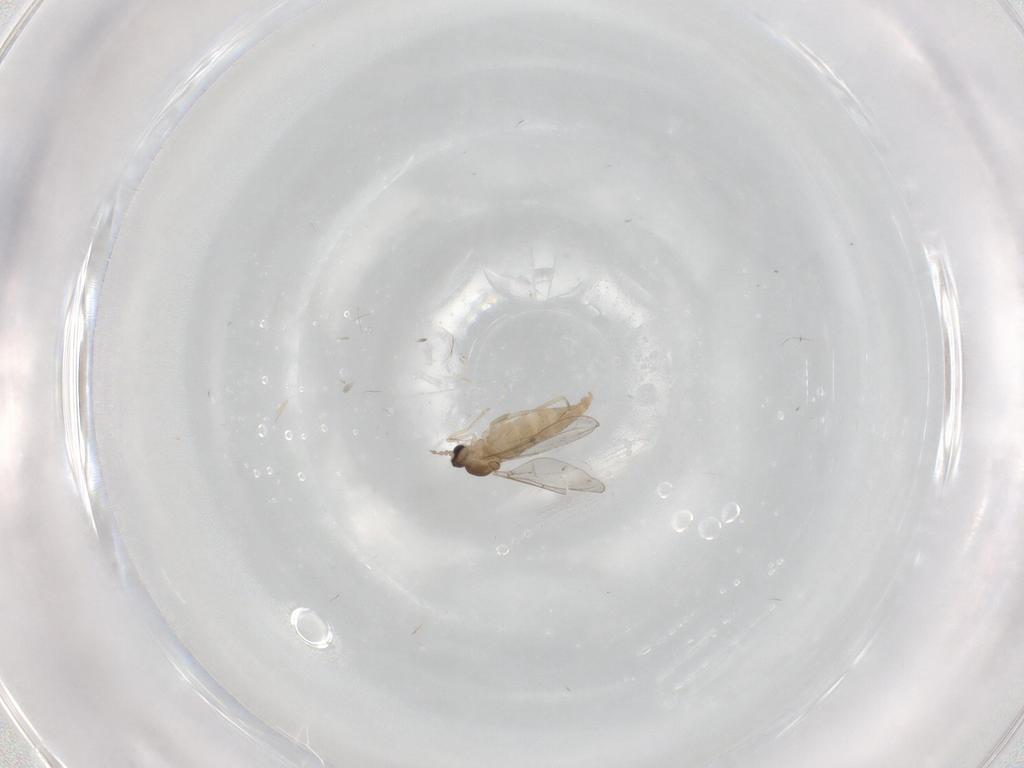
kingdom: Animalia
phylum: Arthropoda
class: Insecta
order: Diptera
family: Cecidomyiidae
